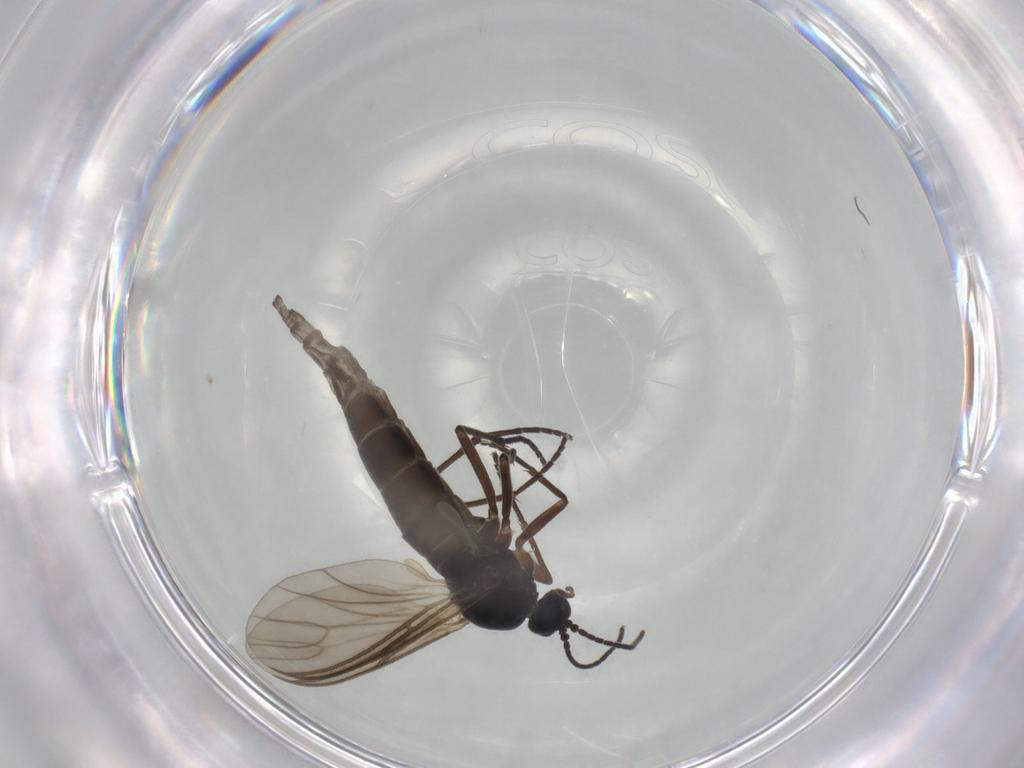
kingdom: Animalia
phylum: Arthropoda
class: Insecta
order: Diptera
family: Sciaridae
